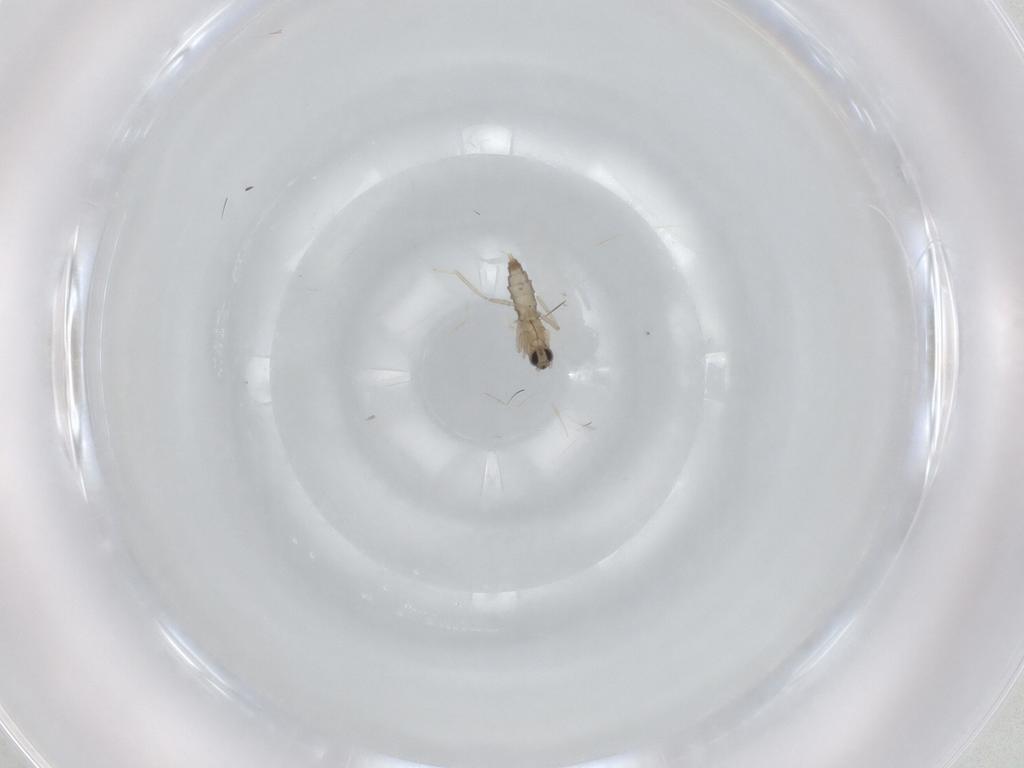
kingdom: Animalia
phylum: Arthropoda
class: Insecta
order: Diptera
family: Cecidomyiidae
